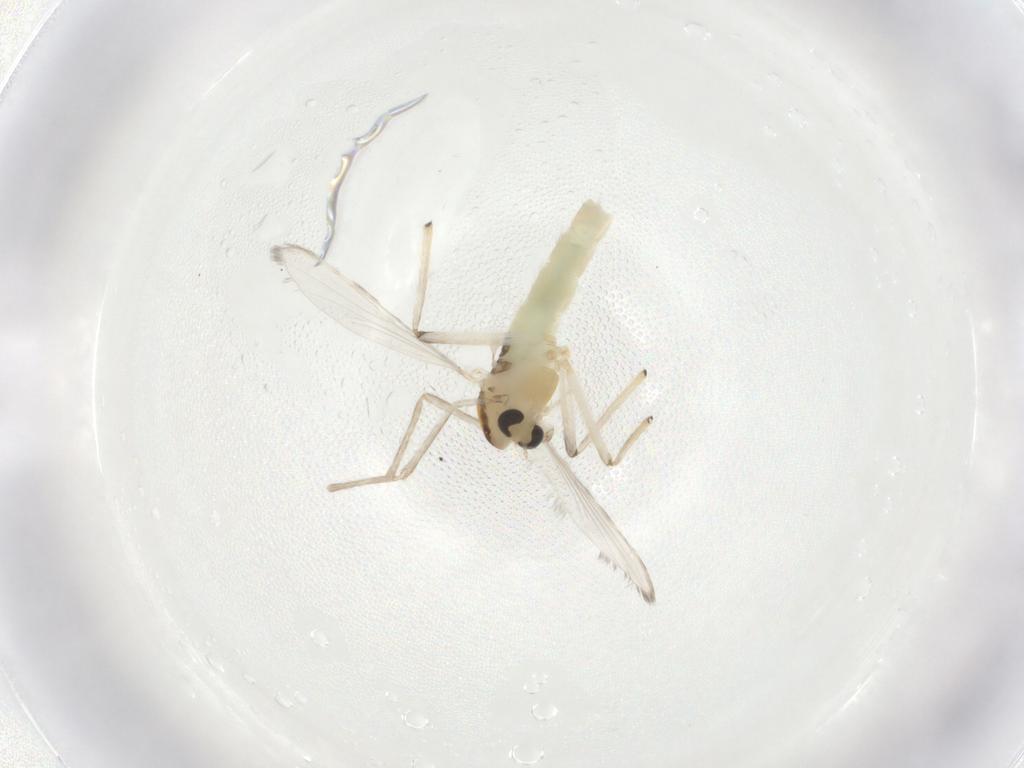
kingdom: Animalia
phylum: Arthropoda
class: Insecta
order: Diptera
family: Chironomidae
